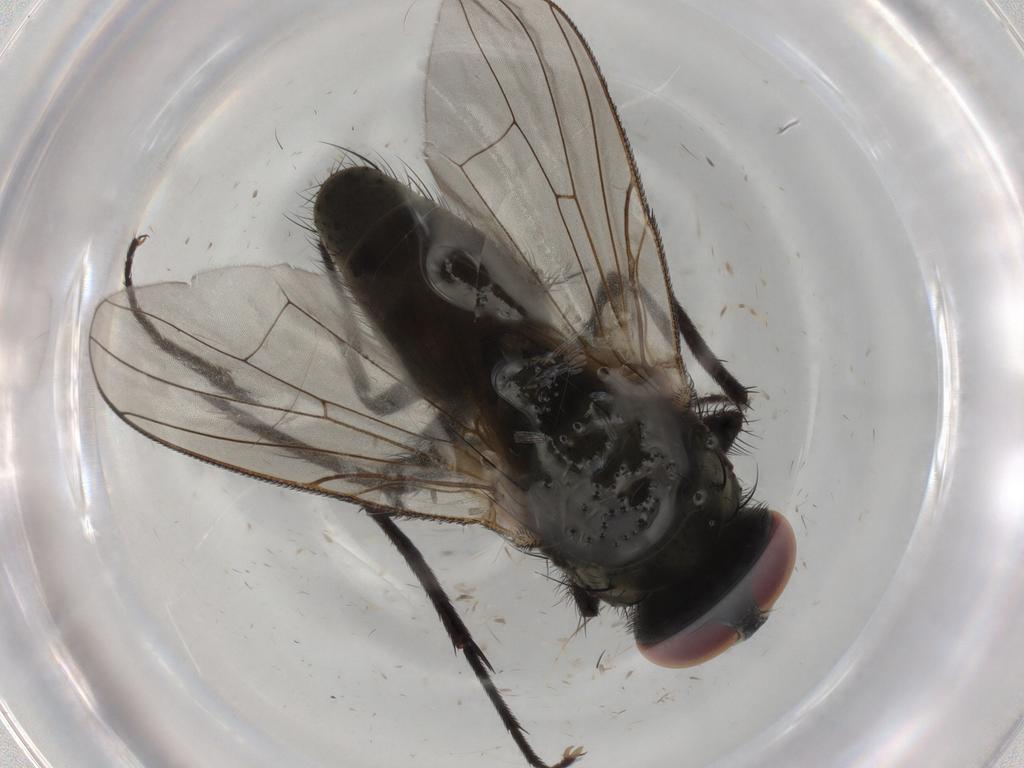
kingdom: Animalia
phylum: Arthropoda
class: Insecta
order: Diptera
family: Muscidae
